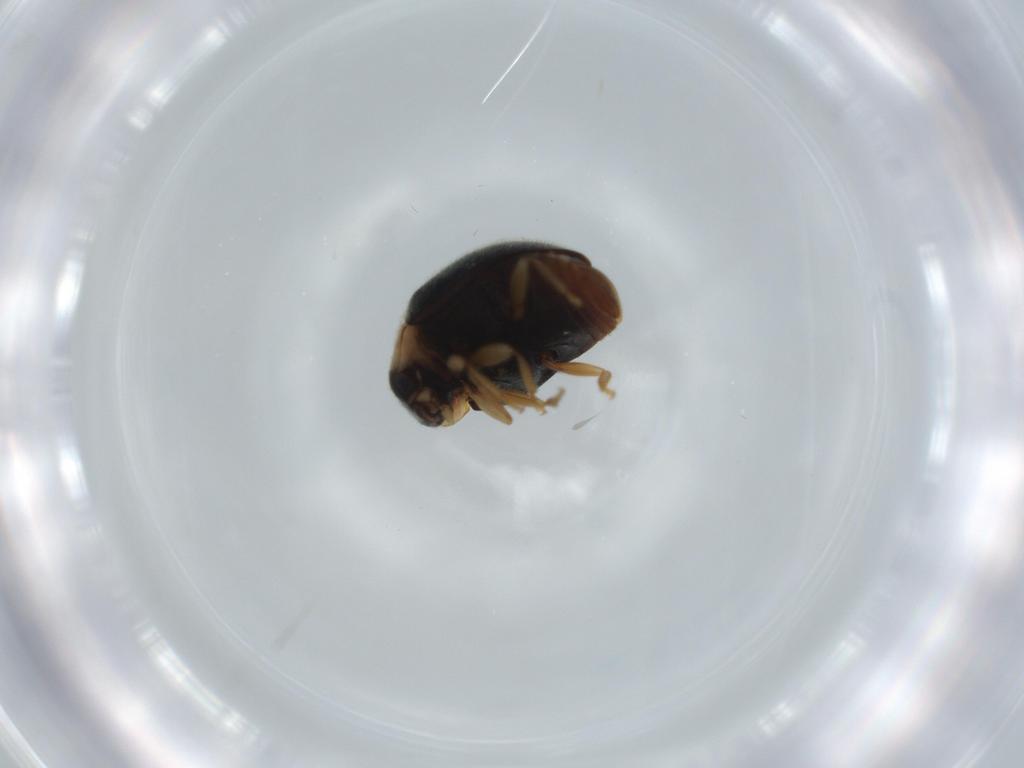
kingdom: Animalia
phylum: Arthropoda
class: Insecta
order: Coleoptera
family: Coccinellidae
